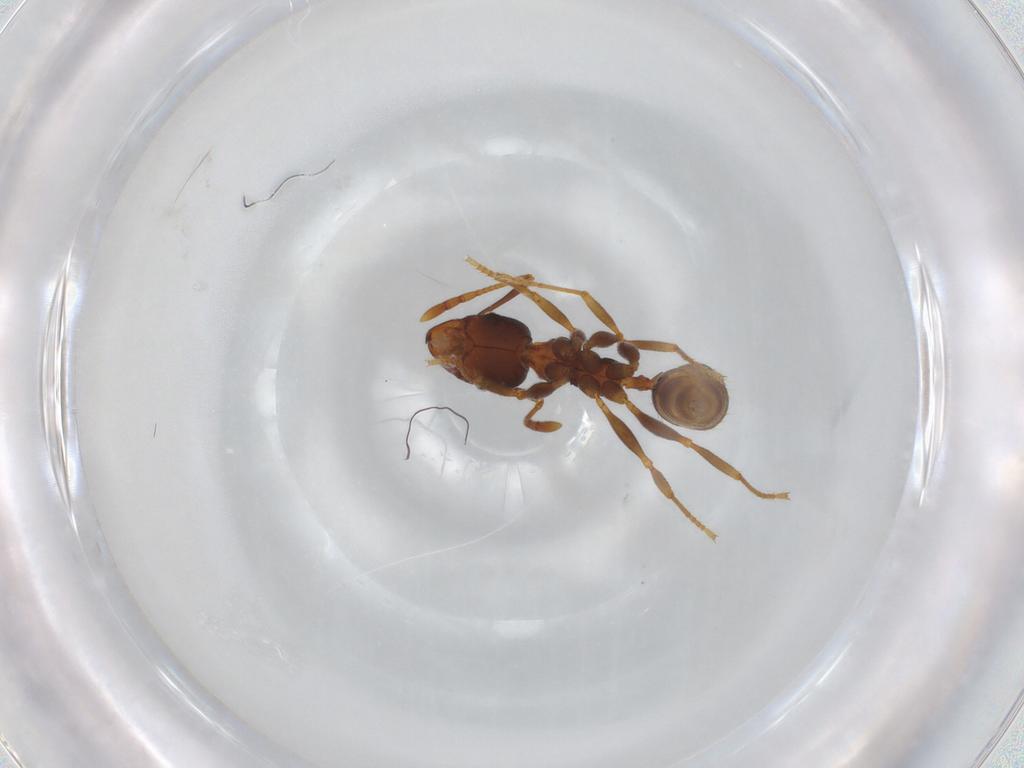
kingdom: Animalia
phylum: Arthropoda
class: Insecta
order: Hymenoptera
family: Formicidae
